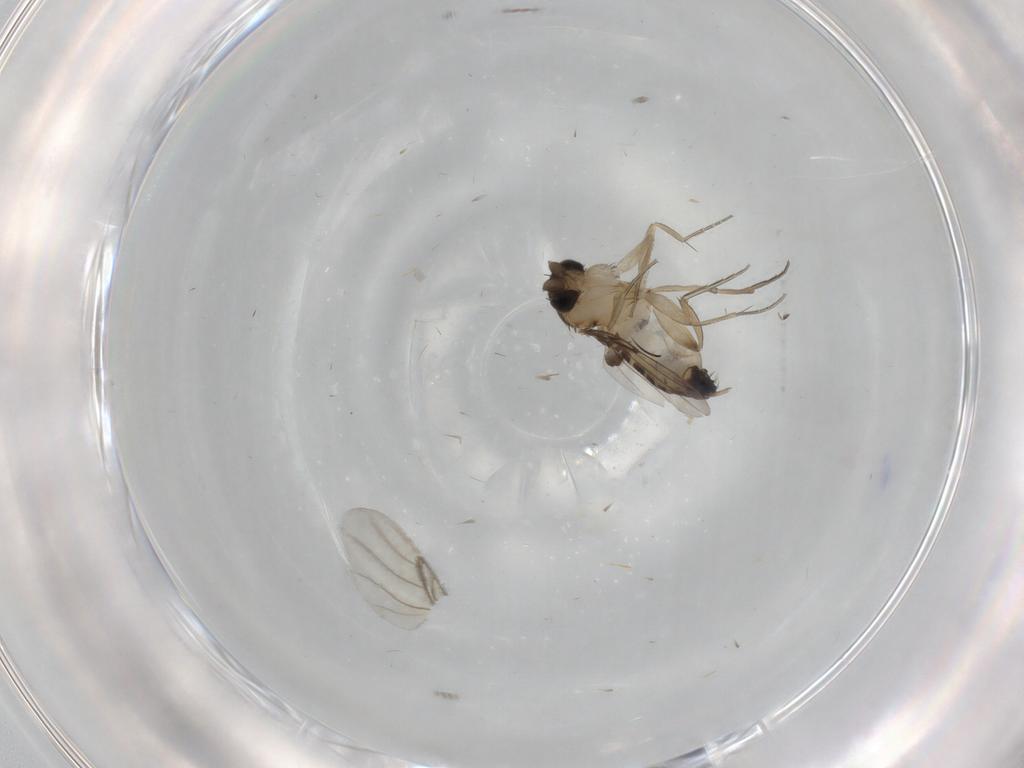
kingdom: Animalia
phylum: Arthropoda
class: Insecta
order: Diptera
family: Phoridae
